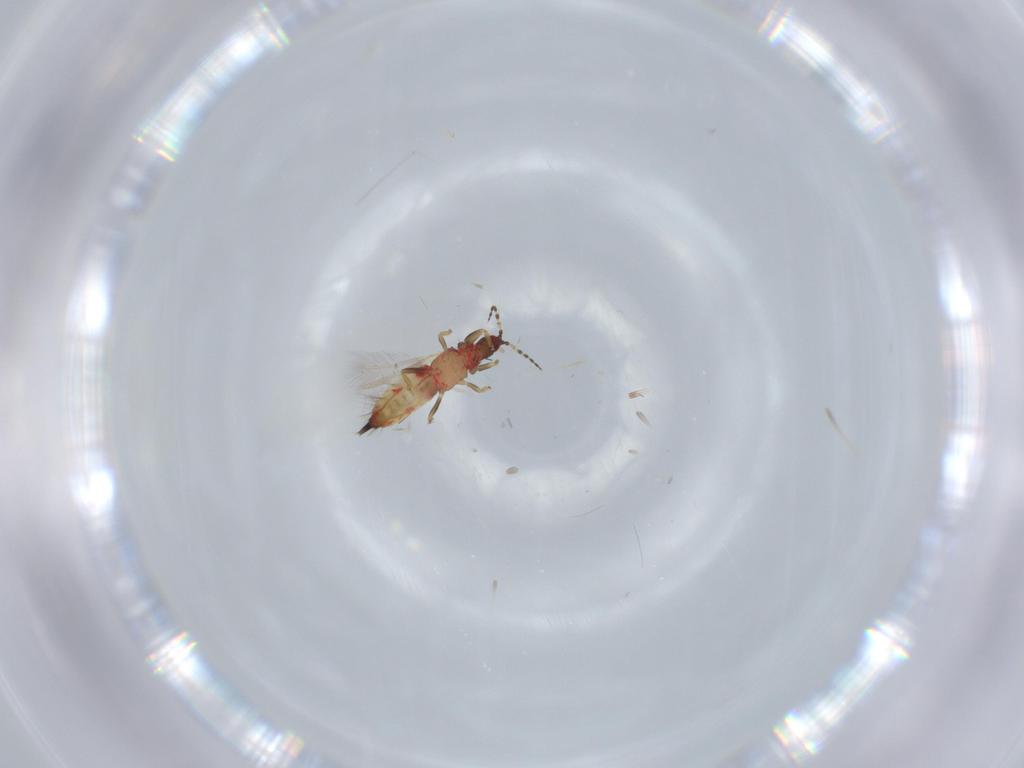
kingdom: Animalia
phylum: Arthropoda
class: Insecta
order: Thysanoptera
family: Phlaeothripidae
